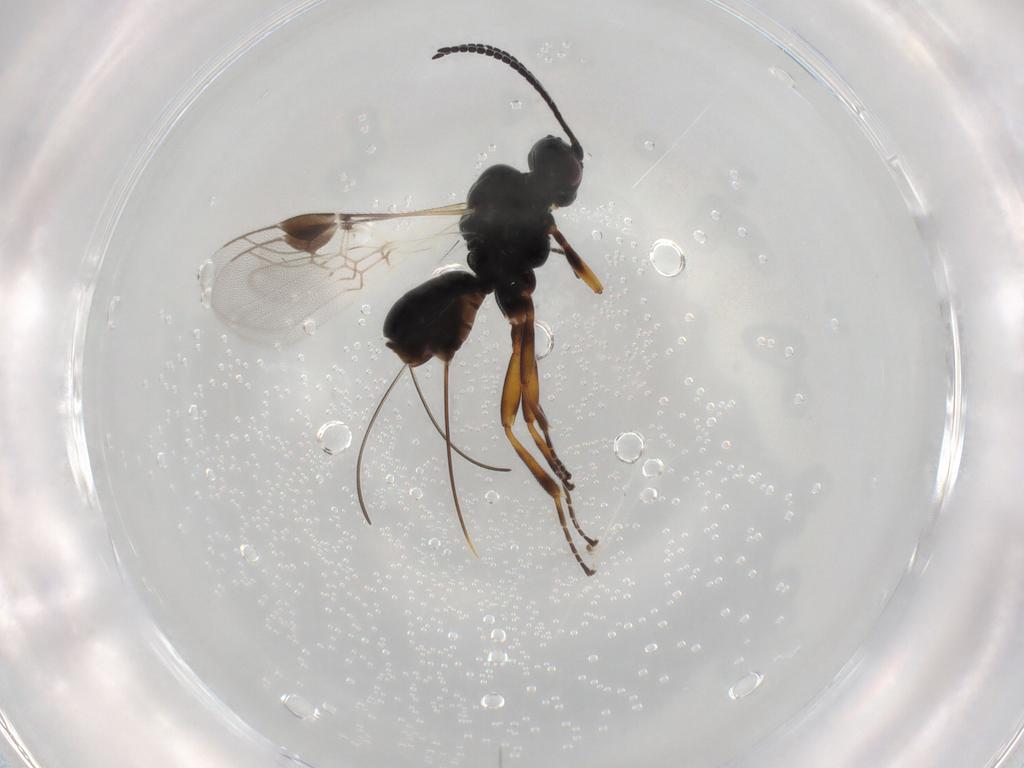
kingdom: Animalia
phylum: Arthropoda
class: Insecta
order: Hymenoptera
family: Braconidae
